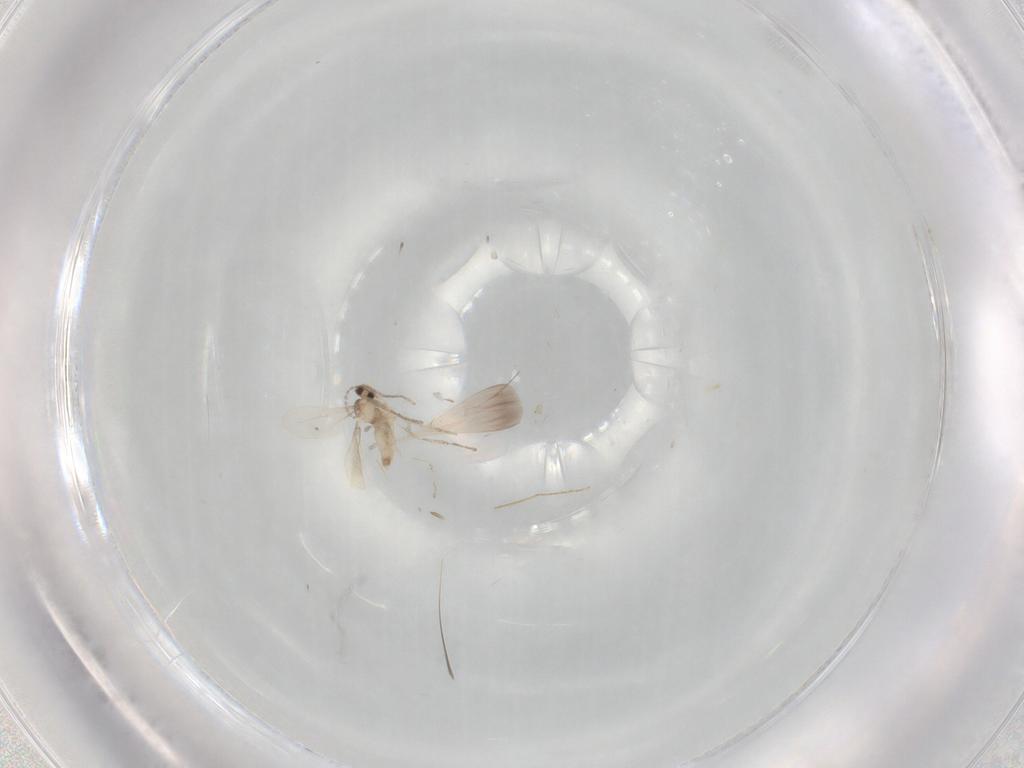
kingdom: Animalia
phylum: Arthropoda
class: Insecta
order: Diptera
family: Cecidomyiidae
